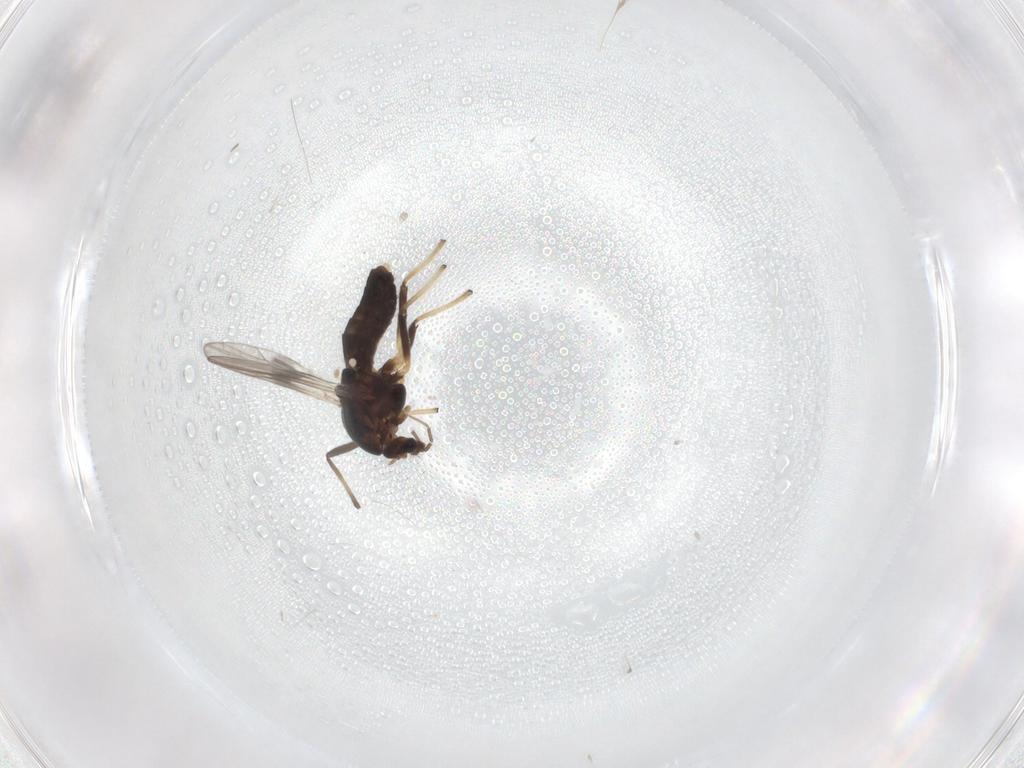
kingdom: Animalia
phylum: Arthropoda
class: Insecta
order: Diptera
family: Chironomidae
